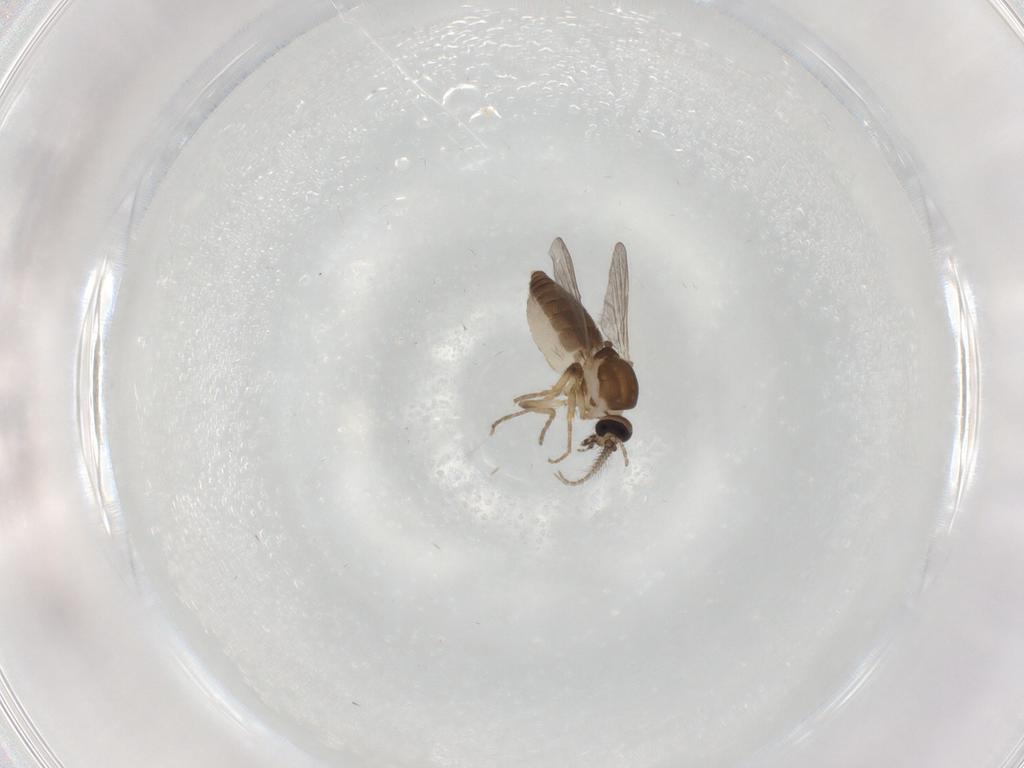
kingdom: Animalia
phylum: Arthropoda
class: Insecta
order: Diptera
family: Ceratopogonidae
